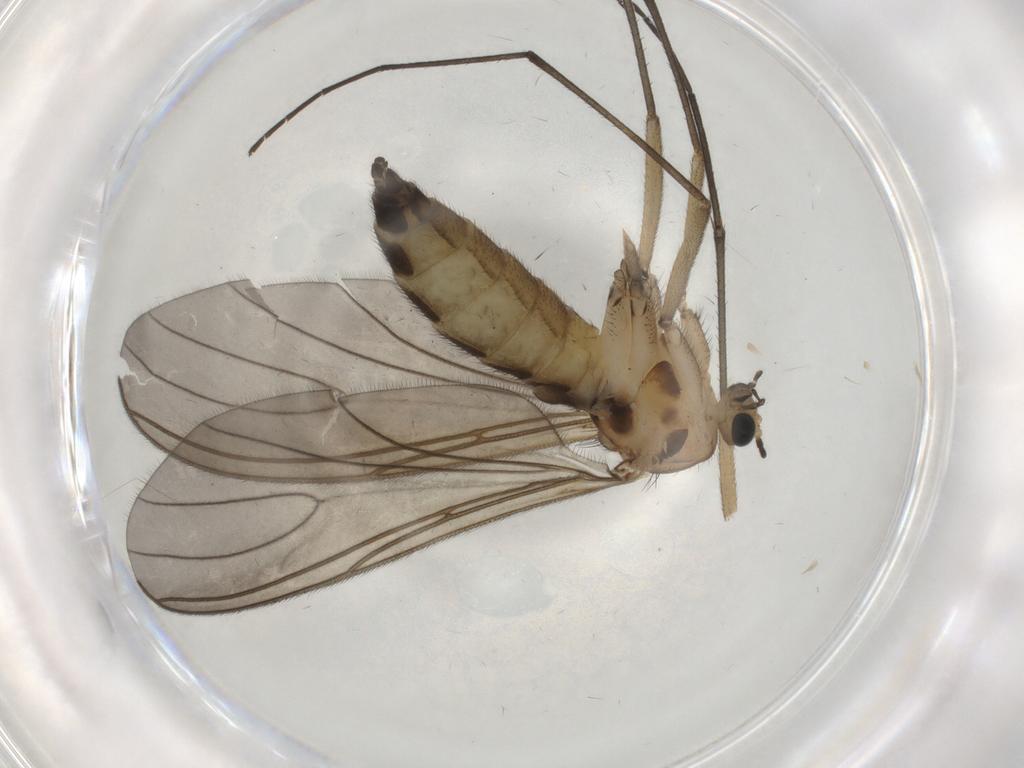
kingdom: Animalia
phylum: Arthropoda
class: Insecta
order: Diptera
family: Sciaridae
